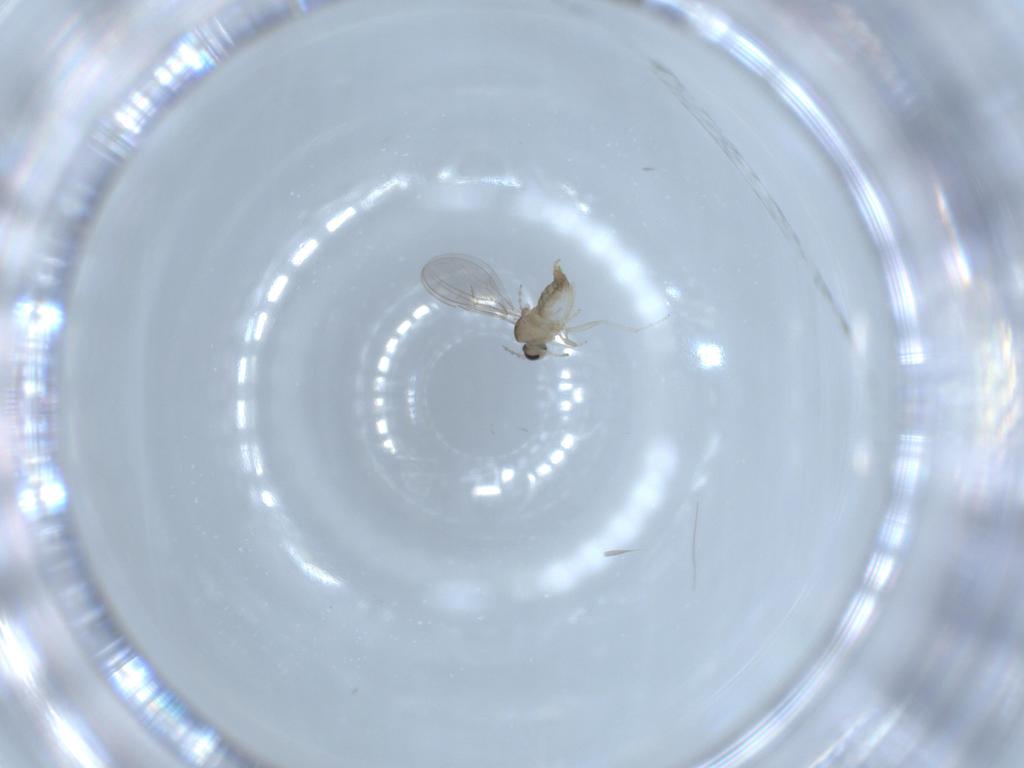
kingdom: Animalia
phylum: Arthropoda
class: Insecta
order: Diptera
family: Cecidomyiidae
